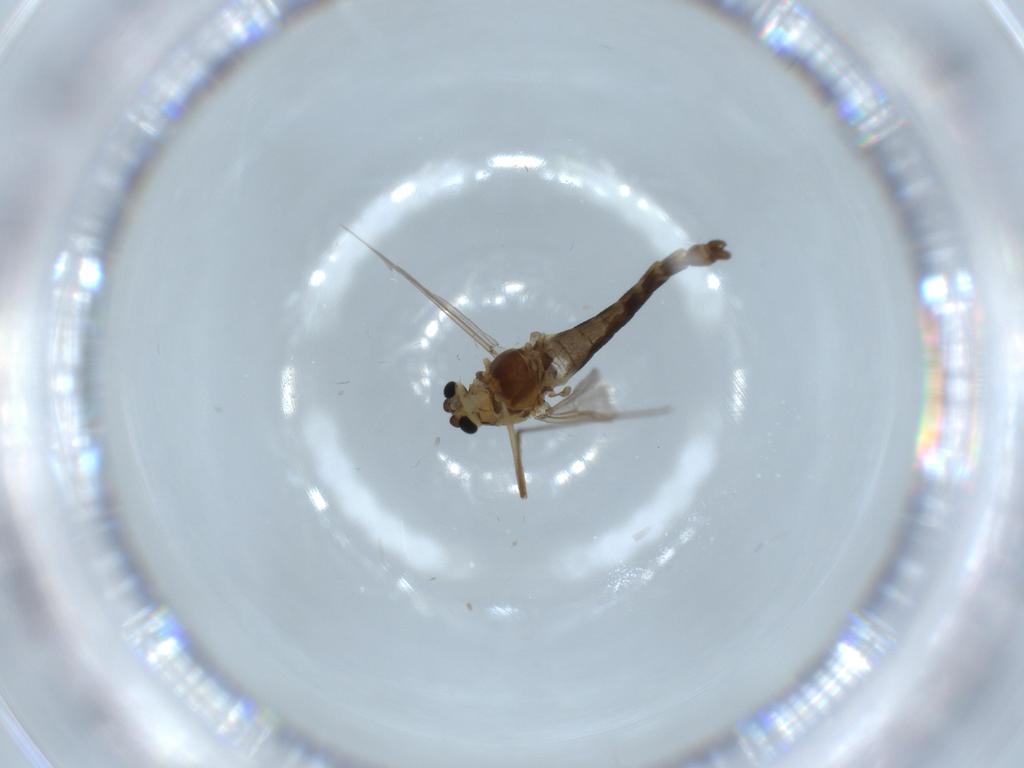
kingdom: Animalia
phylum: Arthropoda
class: Insecta
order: Diptera
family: Chironomidae
